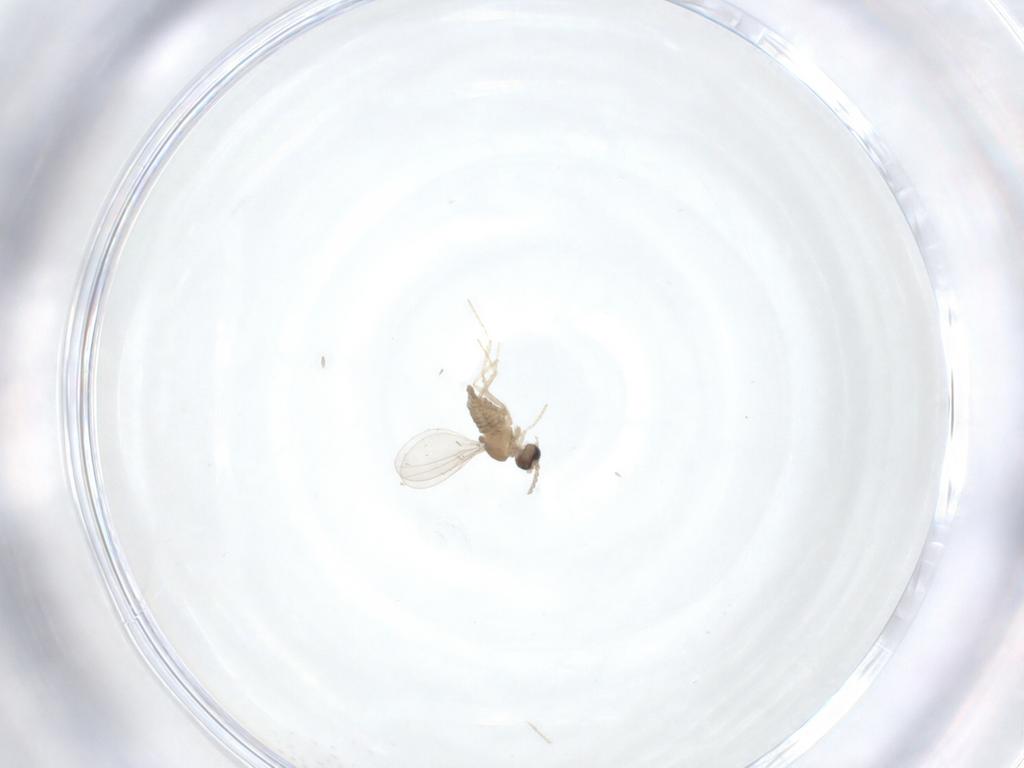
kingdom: Animalia
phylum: Arthropoda
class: Insecta
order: Diptera
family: Cecidomyiidae
